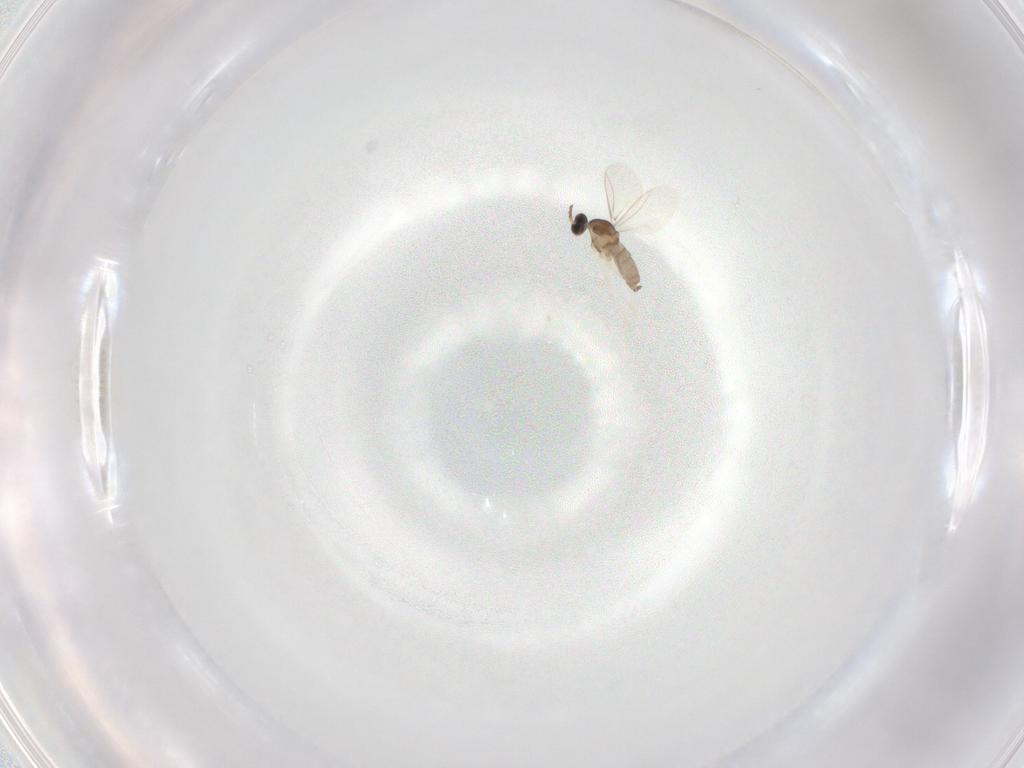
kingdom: Animalia
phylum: Arthropoda
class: Insecta
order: Diptera
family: Cecidomyiidae
